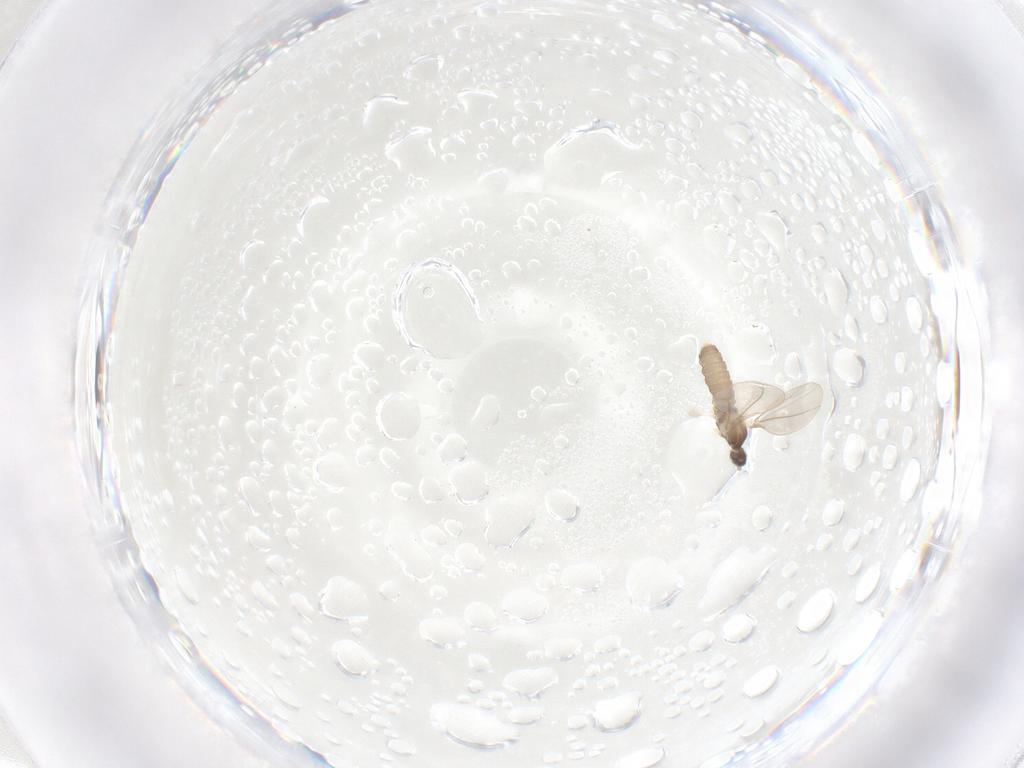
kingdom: Animalia
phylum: Arthropoda
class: Insecta
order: Diptera
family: Cecidomyiidae
